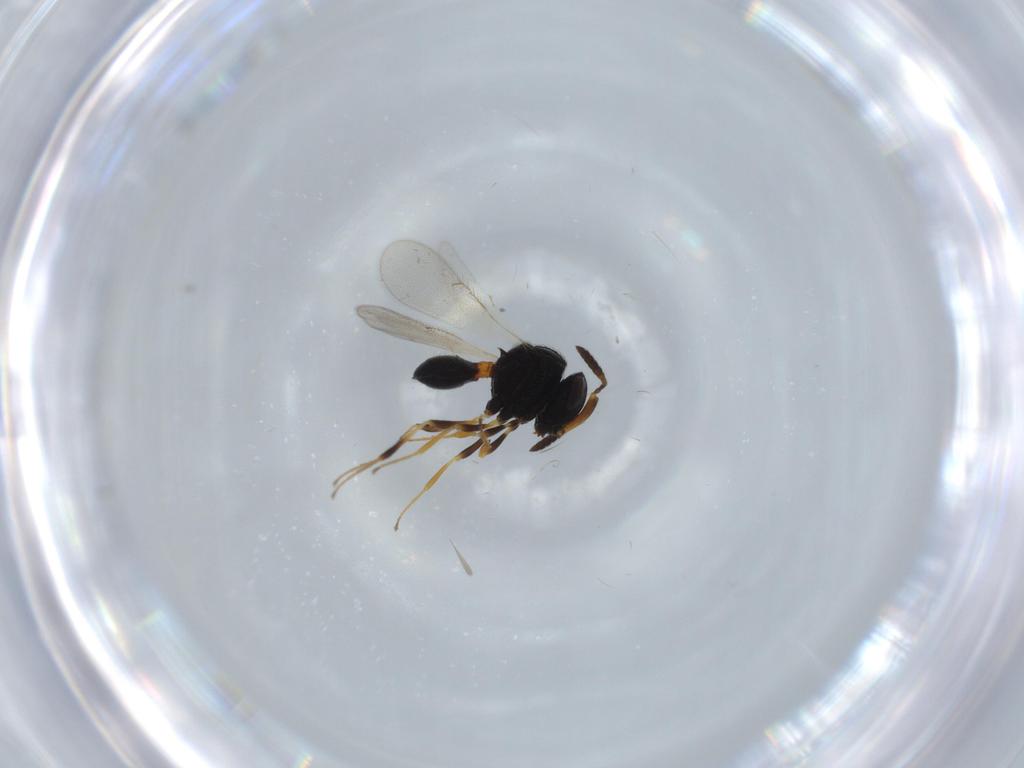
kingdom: Animalia
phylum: Arthropoda
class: Insecta
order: Hymenoptera
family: Scelionidae
